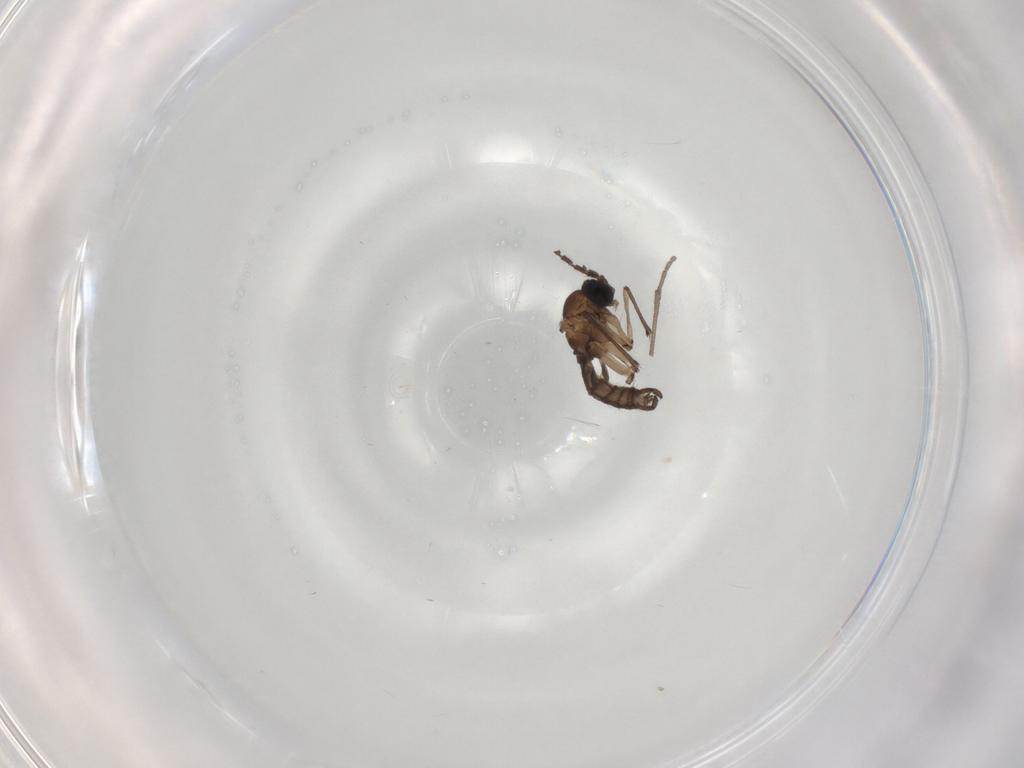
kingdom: Animalia
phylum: Arthropoda
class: Insecta
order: Diptera
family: Sciaridae
